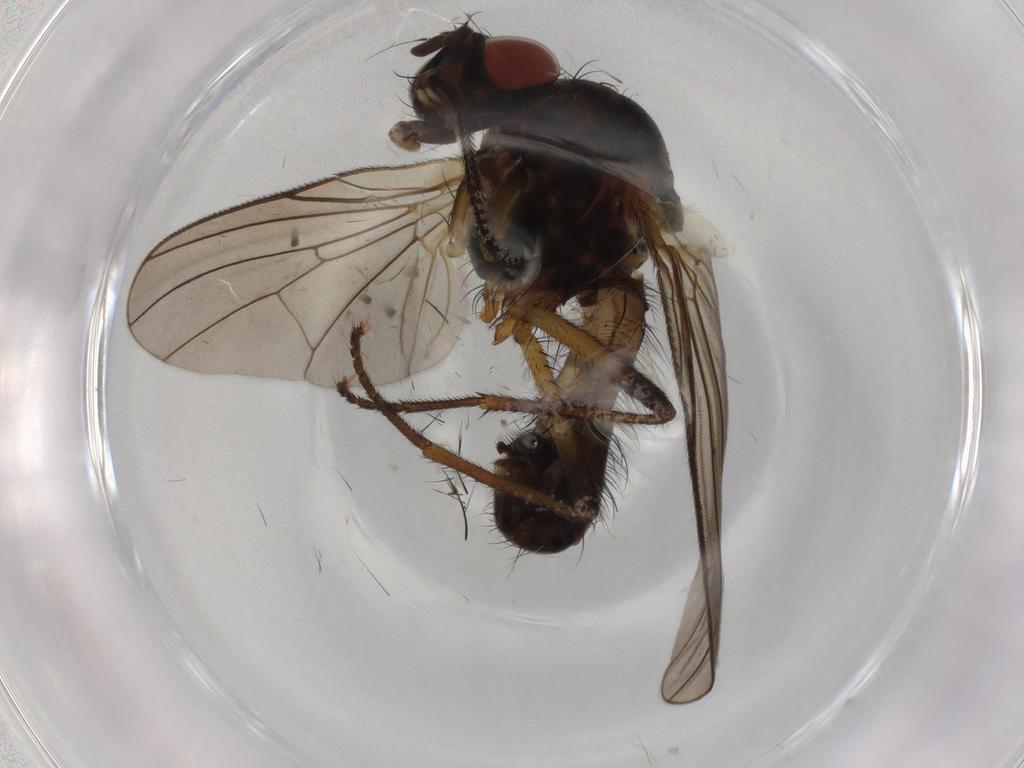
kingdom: Animalia
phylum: Arthropoda
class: Insecta
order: Diptera
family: Anthomyiidae
